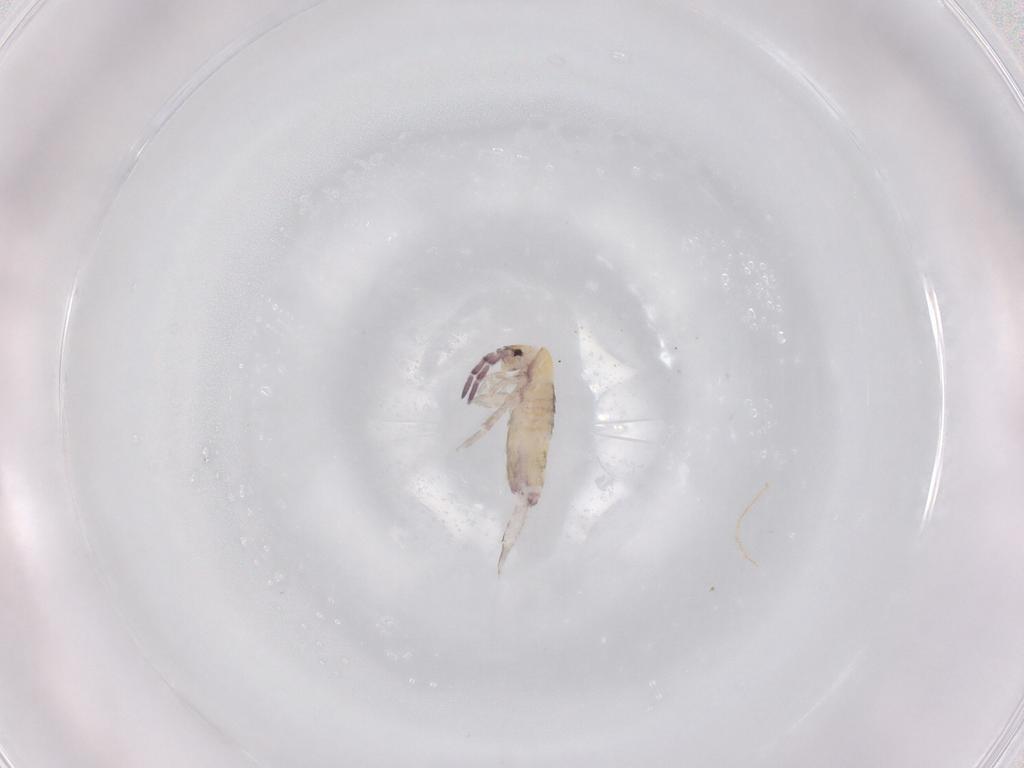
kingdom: Animalia
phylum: Arthropoda
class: Collembola
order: Entomobryomorpha
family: Entomobryidae
